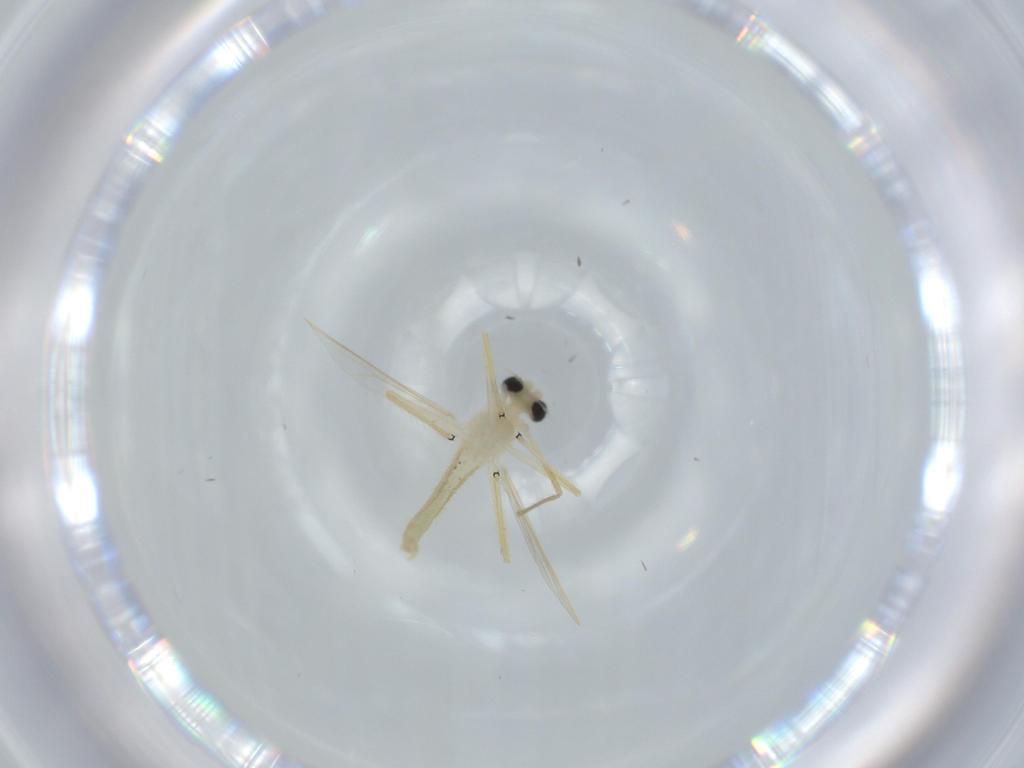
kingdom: Animalia
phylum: Arthropoda
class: Insecta
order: Diptera
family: Chironomidae
